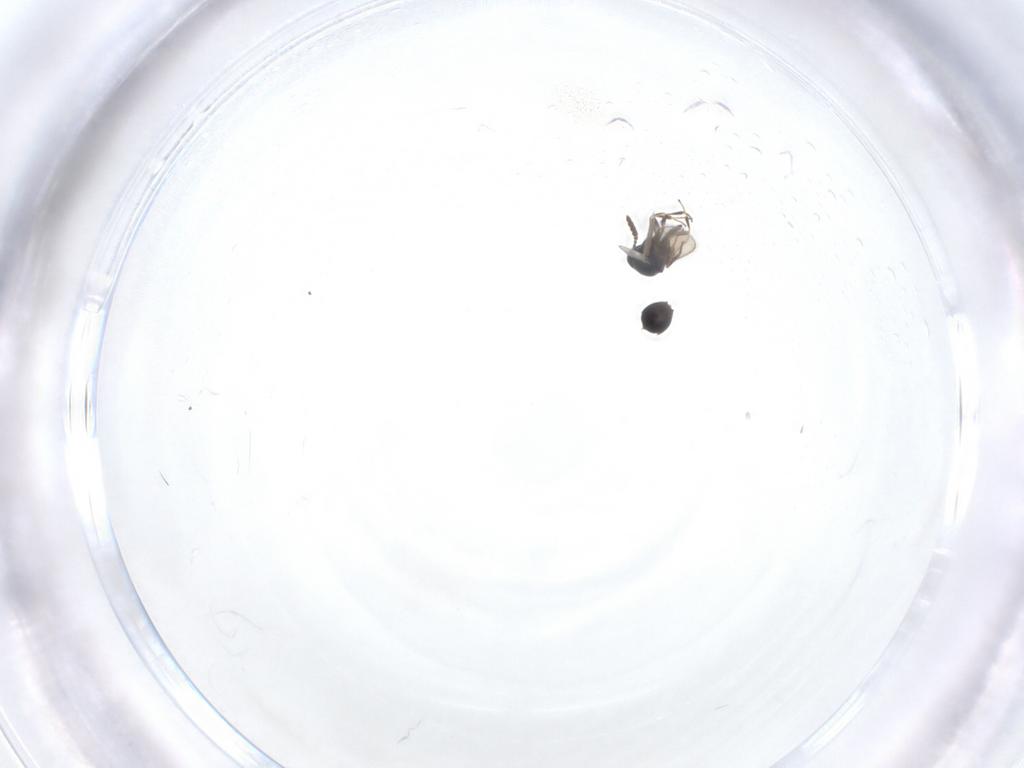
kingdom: Animalia
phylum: Arthropoda
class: Insecta
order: Hymenoptera
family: Scelionidae
